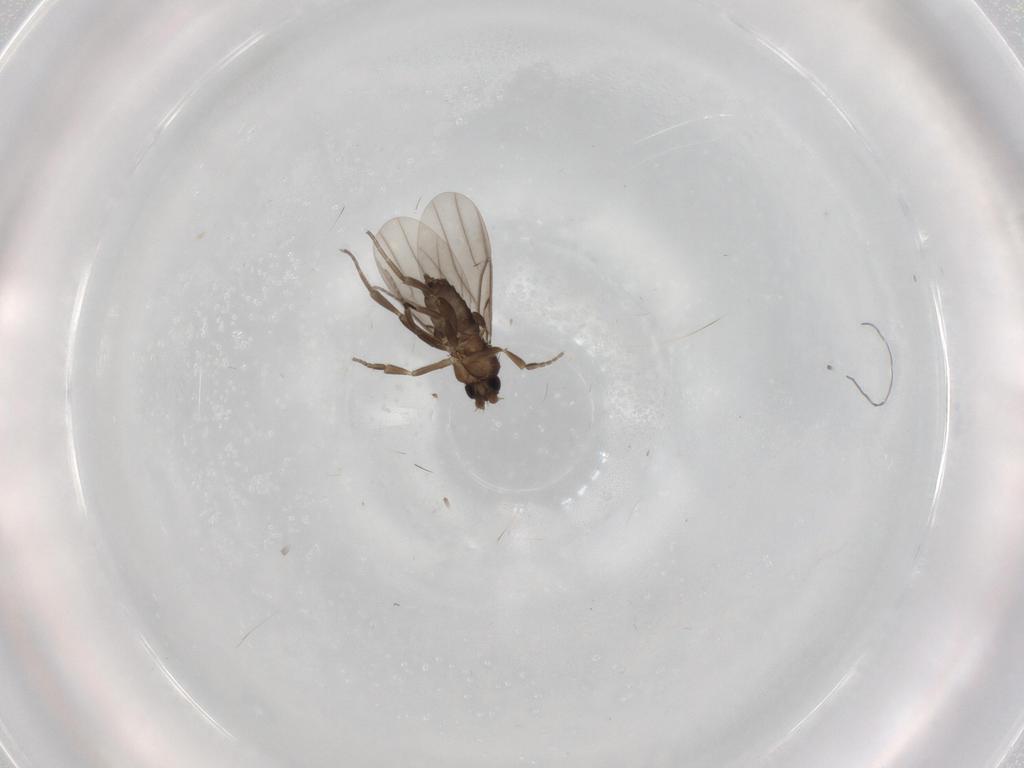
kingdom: Animalia
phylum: Arthropoda
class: Insecta
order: Diptera
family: Phoridae
